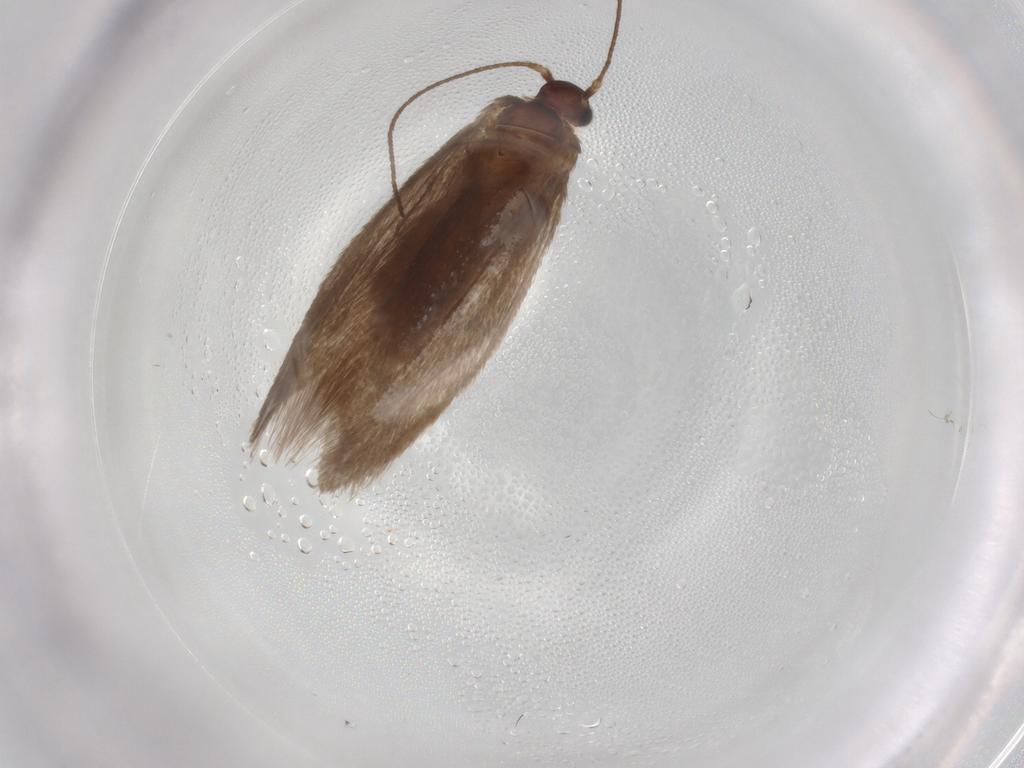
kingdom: Animalia
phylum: Arthropoda
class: Insecta
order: Lepidoptera
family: Limacodidae
